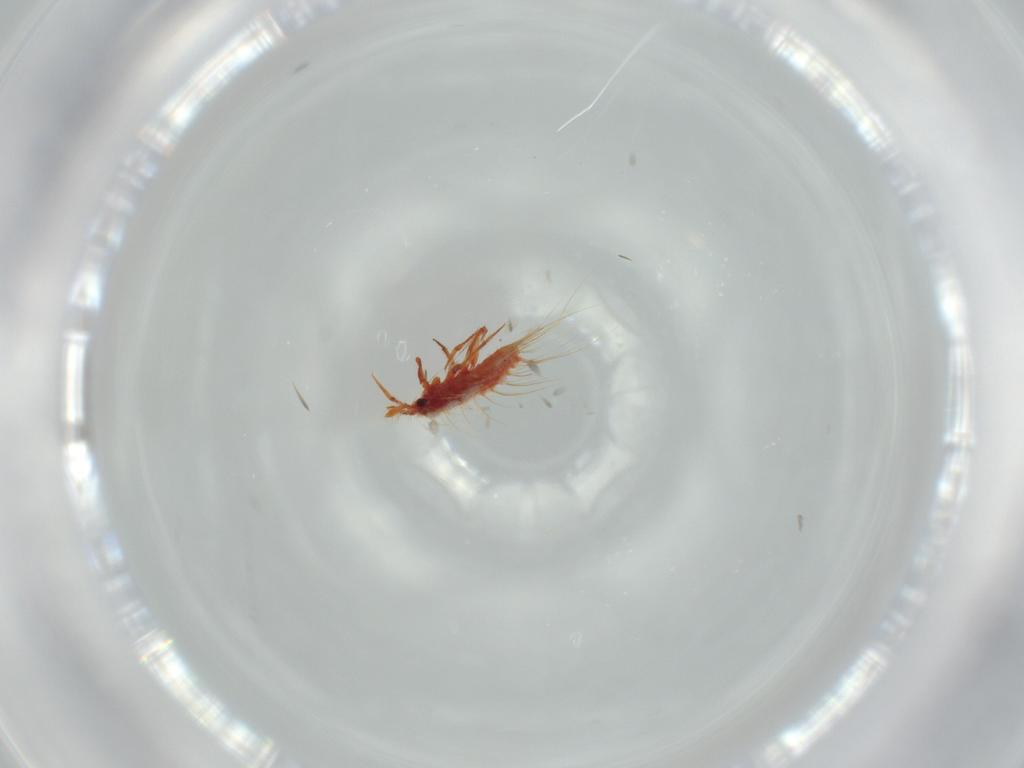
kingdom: Animalia
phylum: Arthropoda
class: Insecta
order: Hemiptera
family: Monophlebidae
